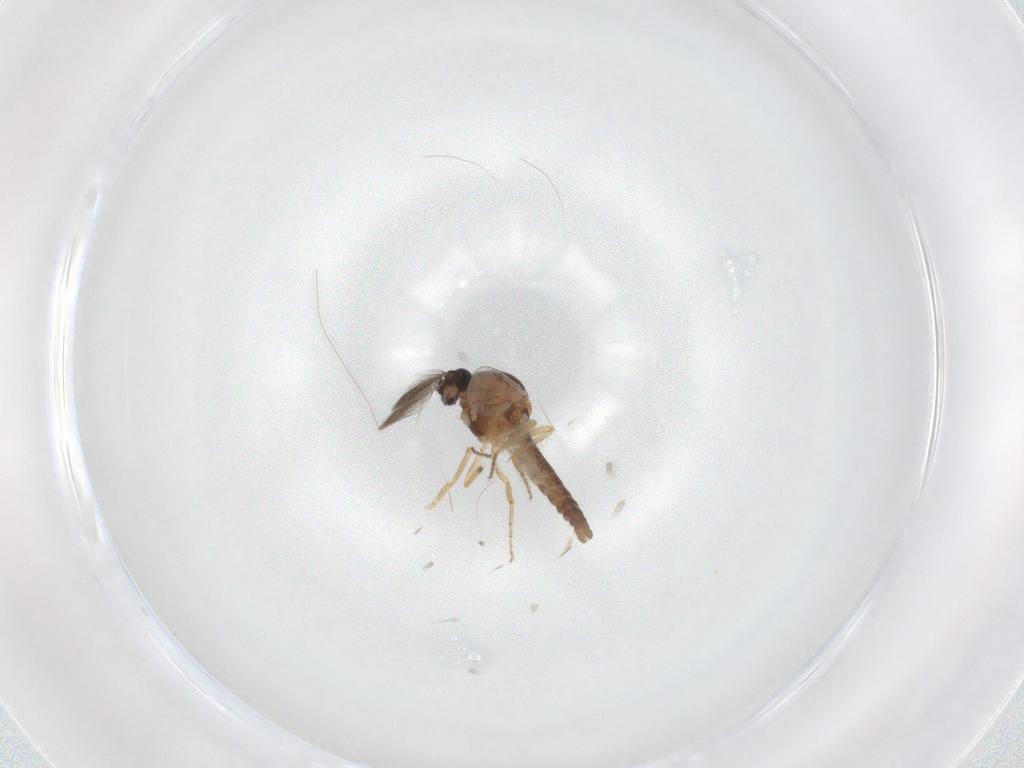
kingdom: Animalia
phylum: Arthropoda
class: Insecta
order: Diptera
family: Ceratopogonidae
